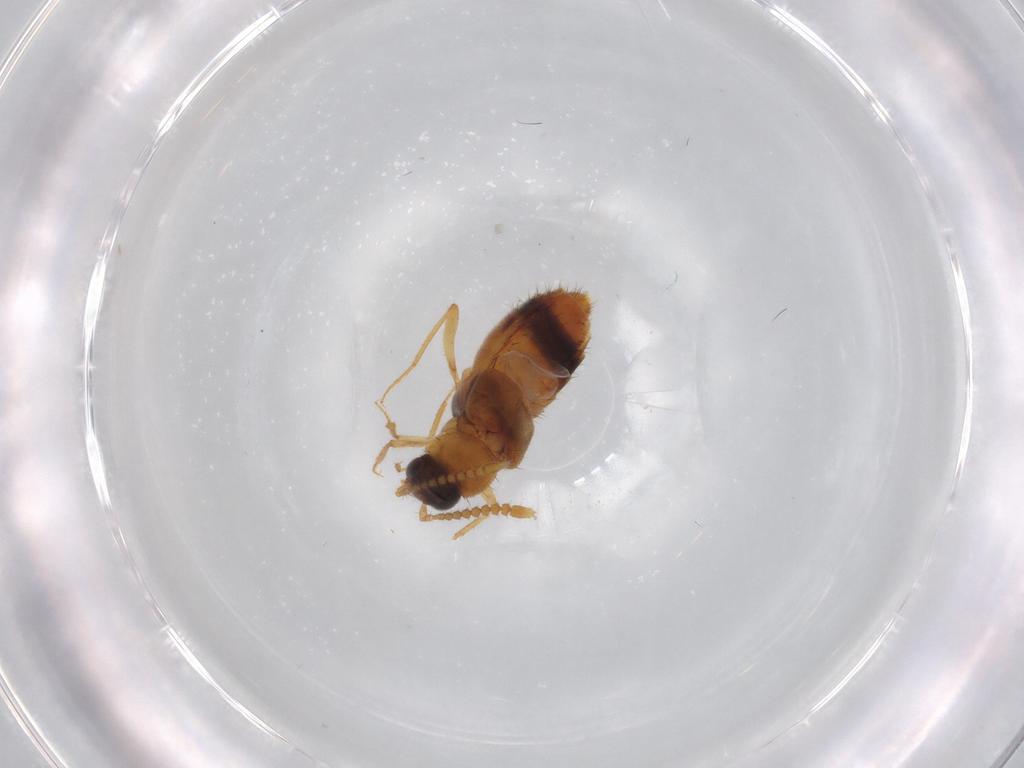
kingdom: Animalia
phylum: Arthropoda
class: Insecta
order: Coleoptera
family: Staphylinidae
